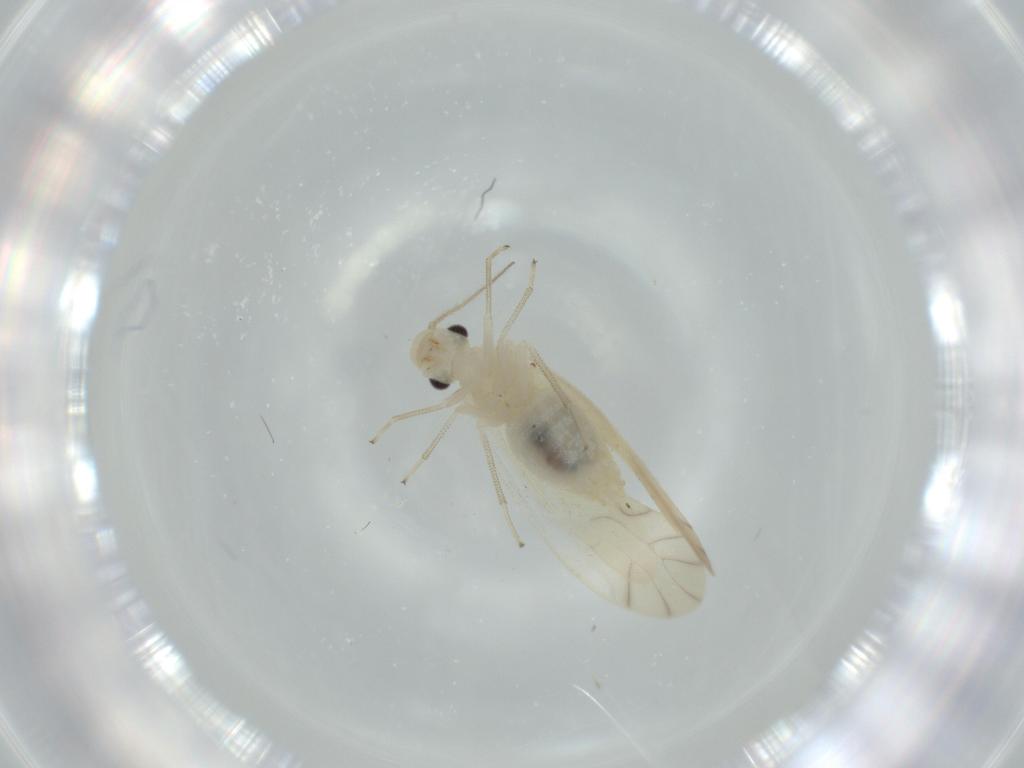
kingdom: Animalia
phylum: Arthropoda
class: Insecta
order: Psocodea
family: Caeciliusidae
